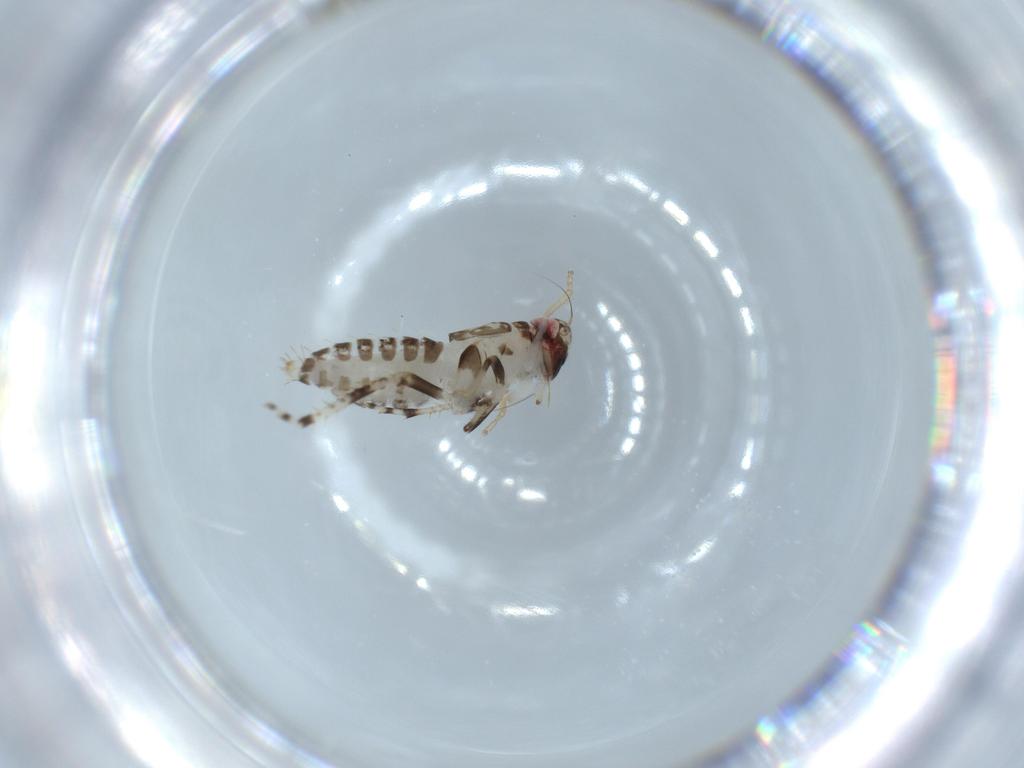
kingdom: Animalia
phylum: Arthropoda
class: Insecta
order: Hemiptera
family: Cicadellidae
